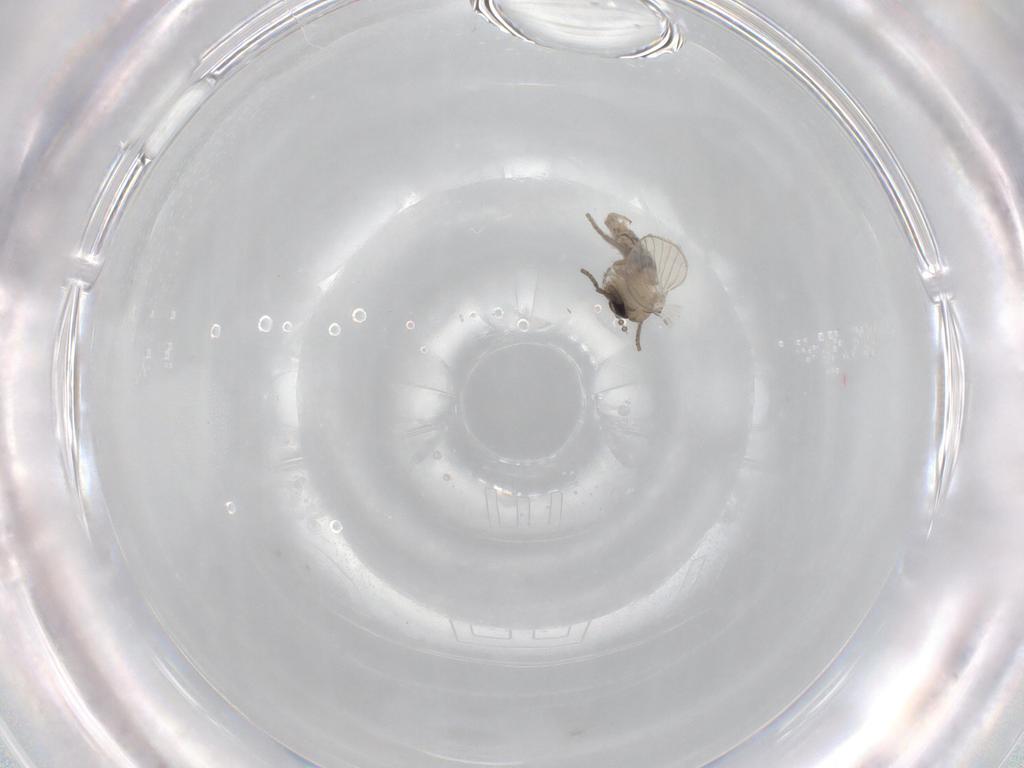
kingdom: Animalia
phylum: Arthropoda
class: Insecta
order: Diptera
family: Psychodidae
